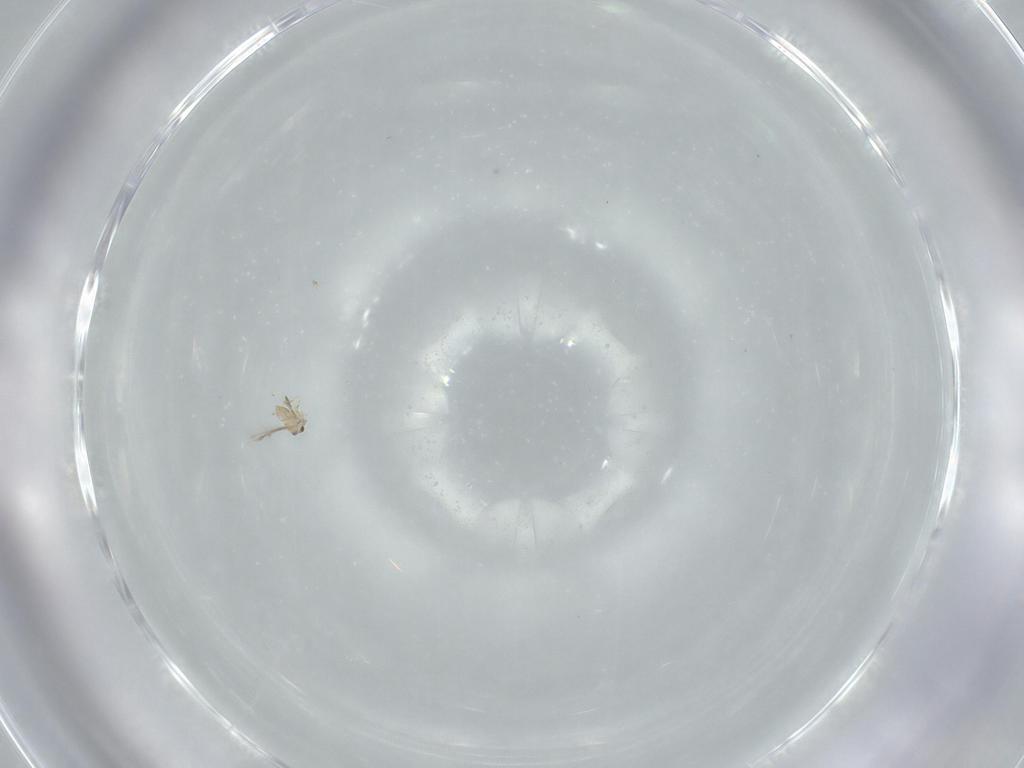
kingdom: Animalia
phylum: Arthropoda
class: Insecta
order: Hymenoptera
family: Mymaridae
